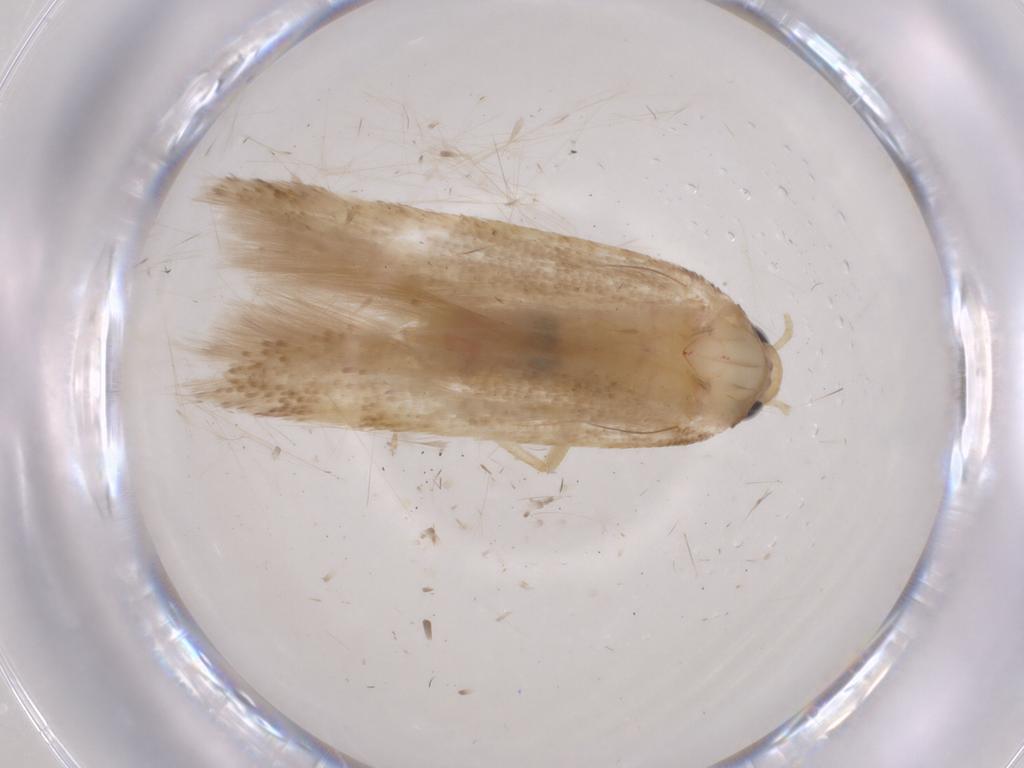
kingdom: Animalia
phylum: Arthropoda
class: Insecta
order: Lepidoptera
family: Gelechiidae
